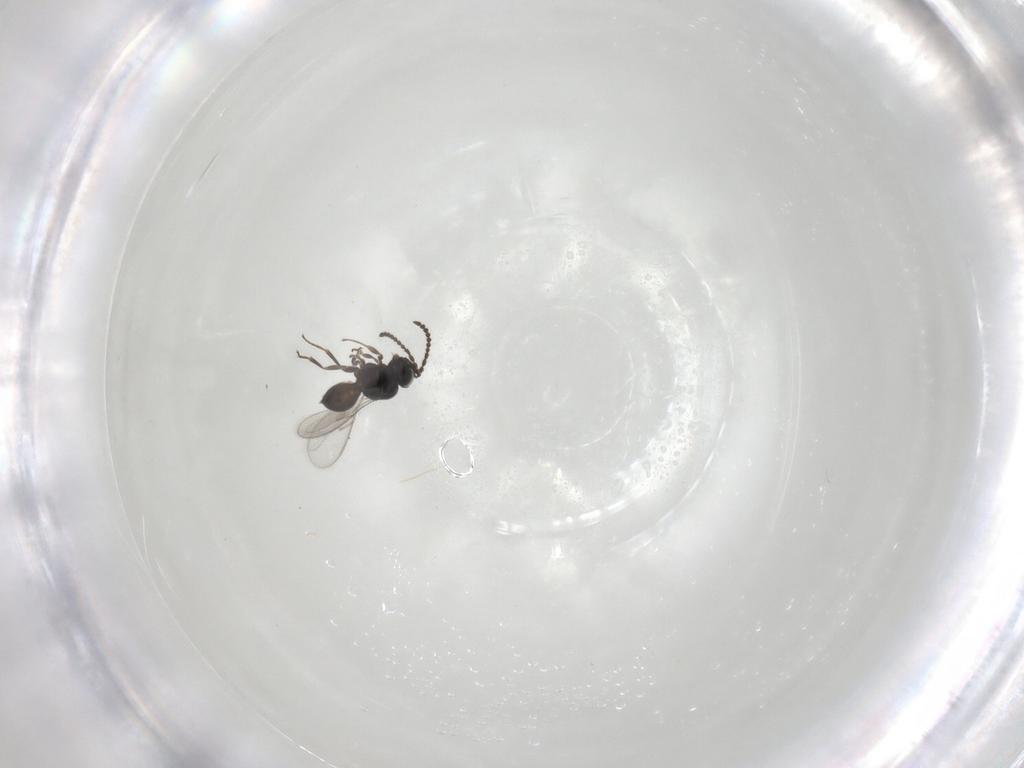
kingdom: Animalia
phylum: Arthropoda
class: Insecta
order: Hymenoptera
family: Scelionidae
